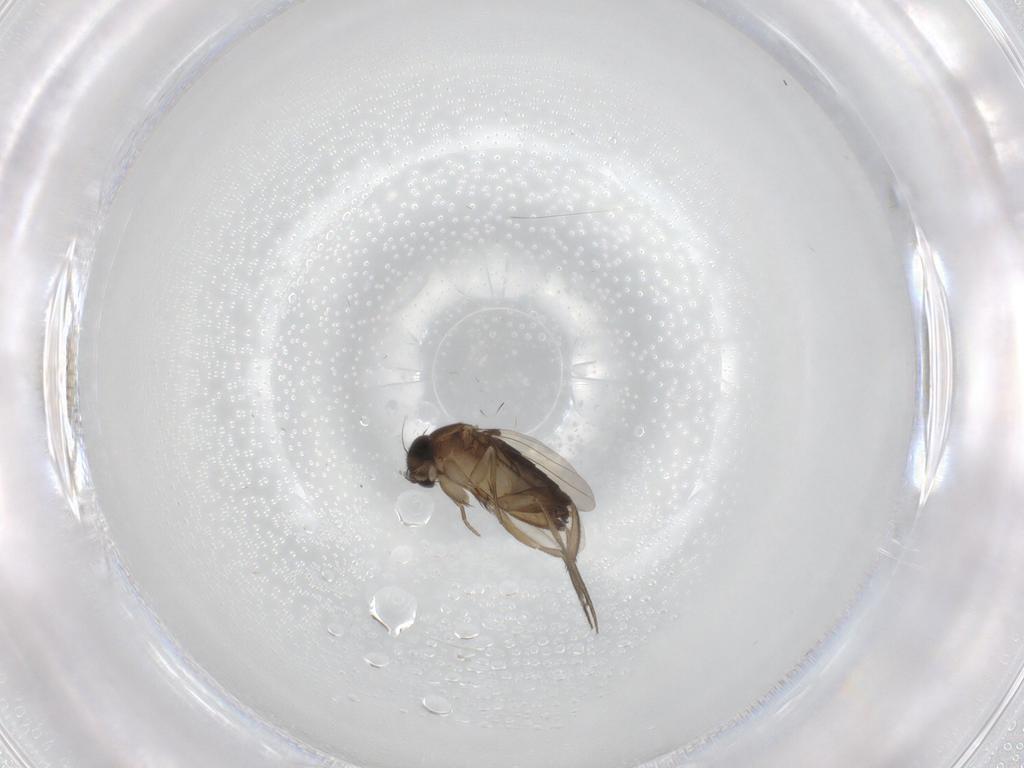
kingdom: Animalia
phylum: Arthropoda
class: Insecta
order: Diptera
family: Phoridae
